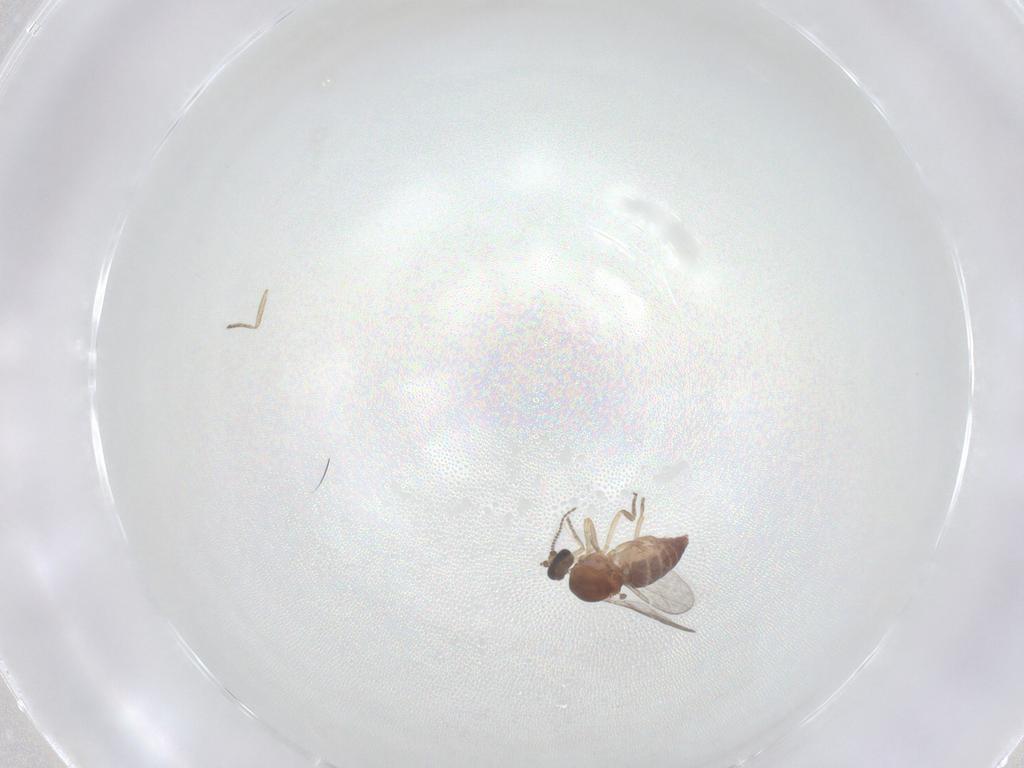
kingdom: Animalia
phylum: Arthropoda
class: Insecta
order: Diptera
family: Ceratopogonidae
